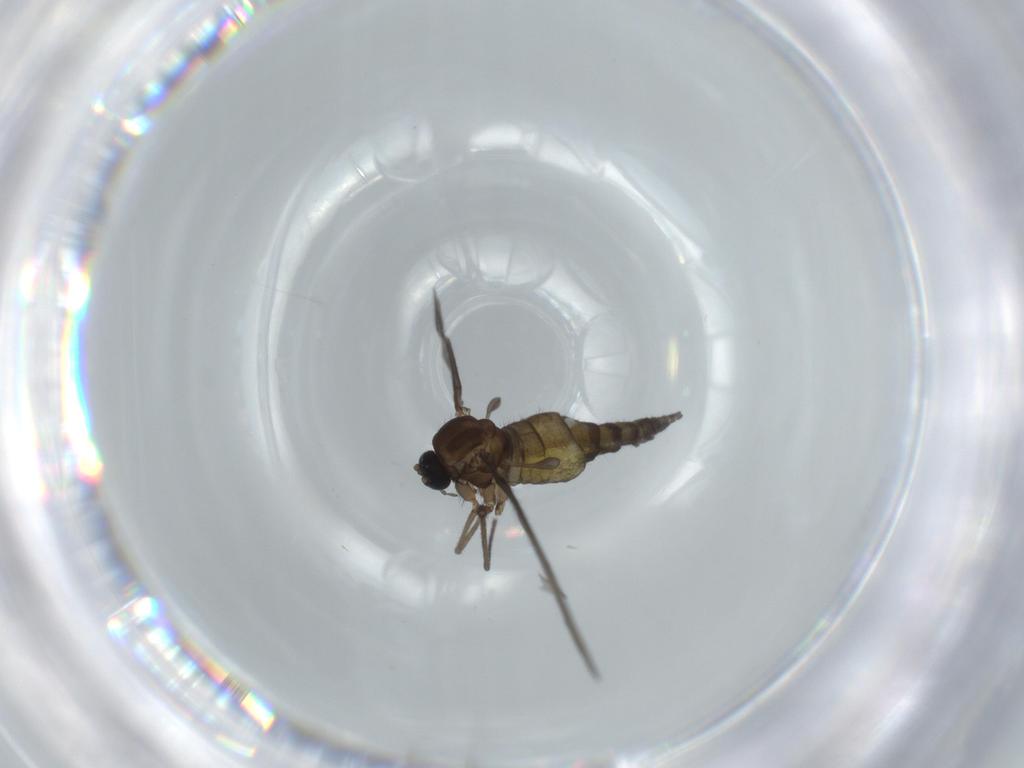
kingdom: Animalia
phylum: Arthropoda
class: Insecta
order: Diptera
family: Sciaridae
